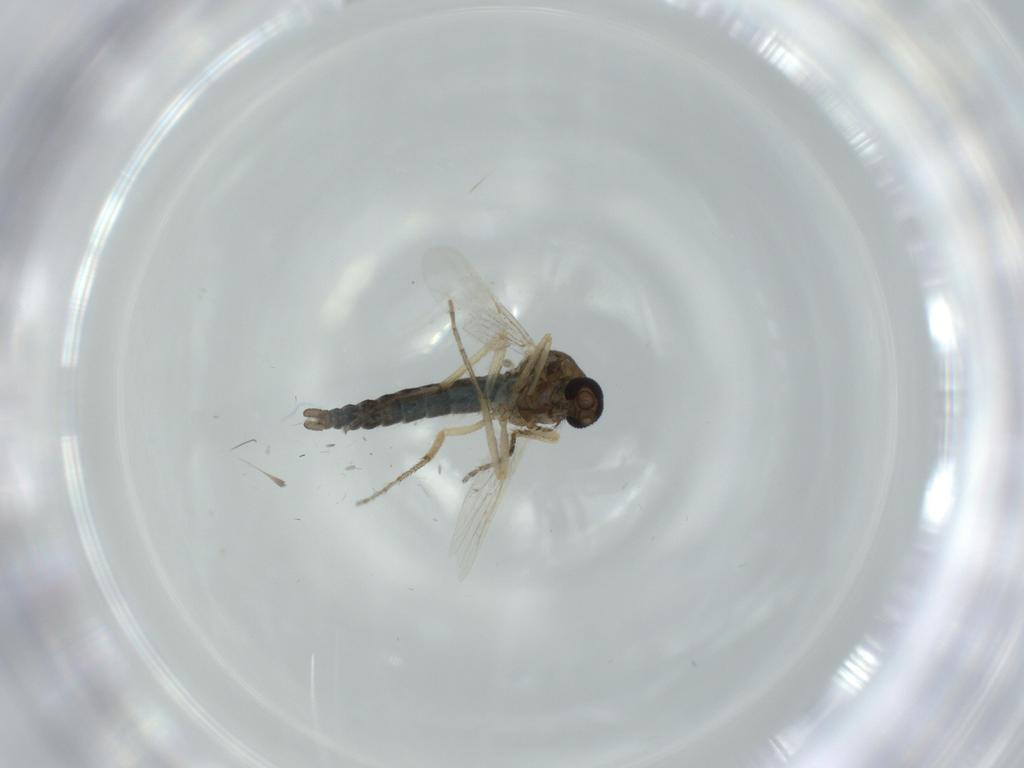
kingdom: Animalia
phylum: Arthropoda
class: Insecta
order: Diptera
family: Ceratopogonidae
